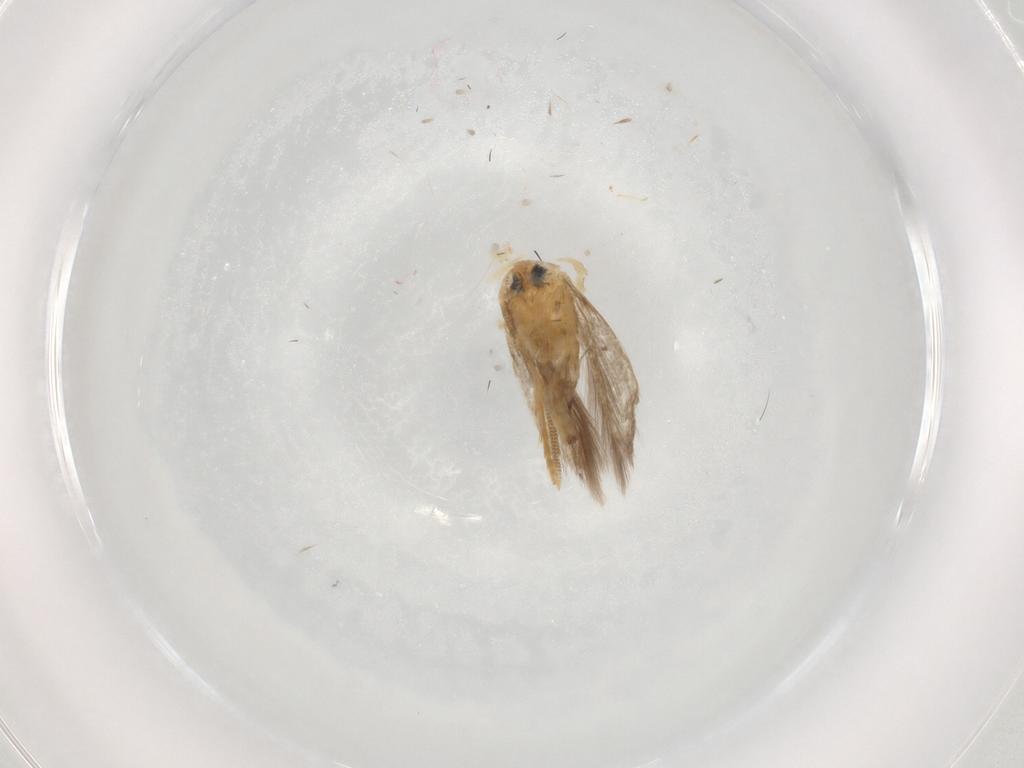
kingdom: Animalia
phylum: Arthropoda
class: Insecta
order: Lepidoptera
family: Opostegidae
